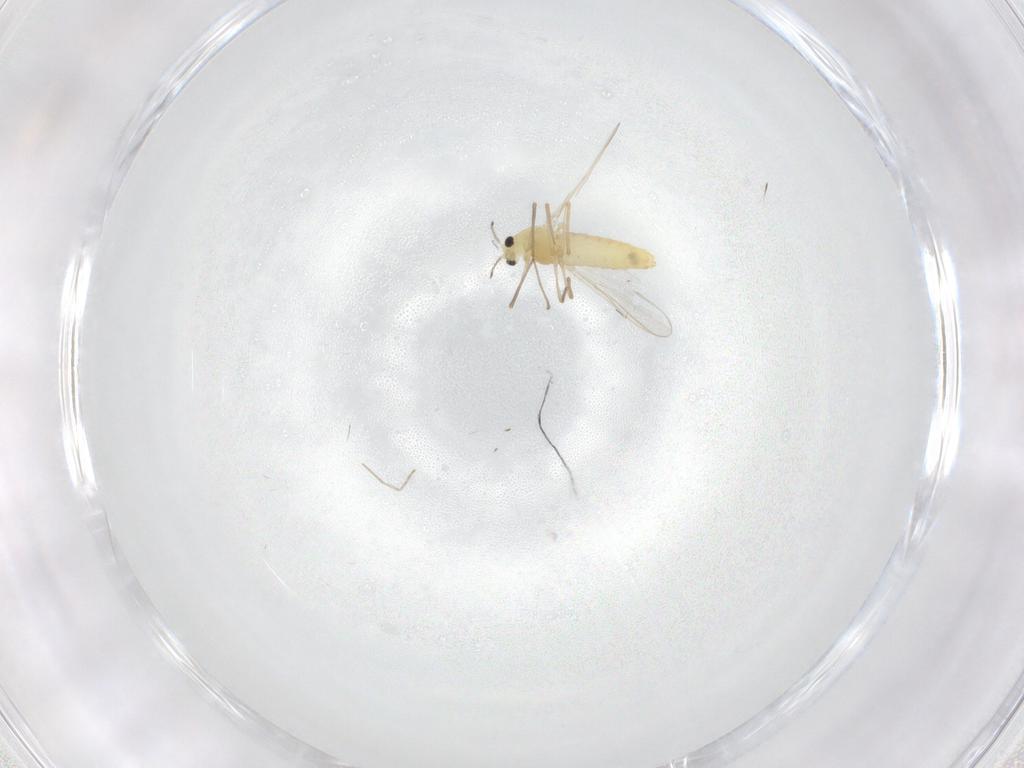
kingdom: Animalia
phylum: Arthropoda
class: Insecta
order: Diptera
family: Chironomidae
